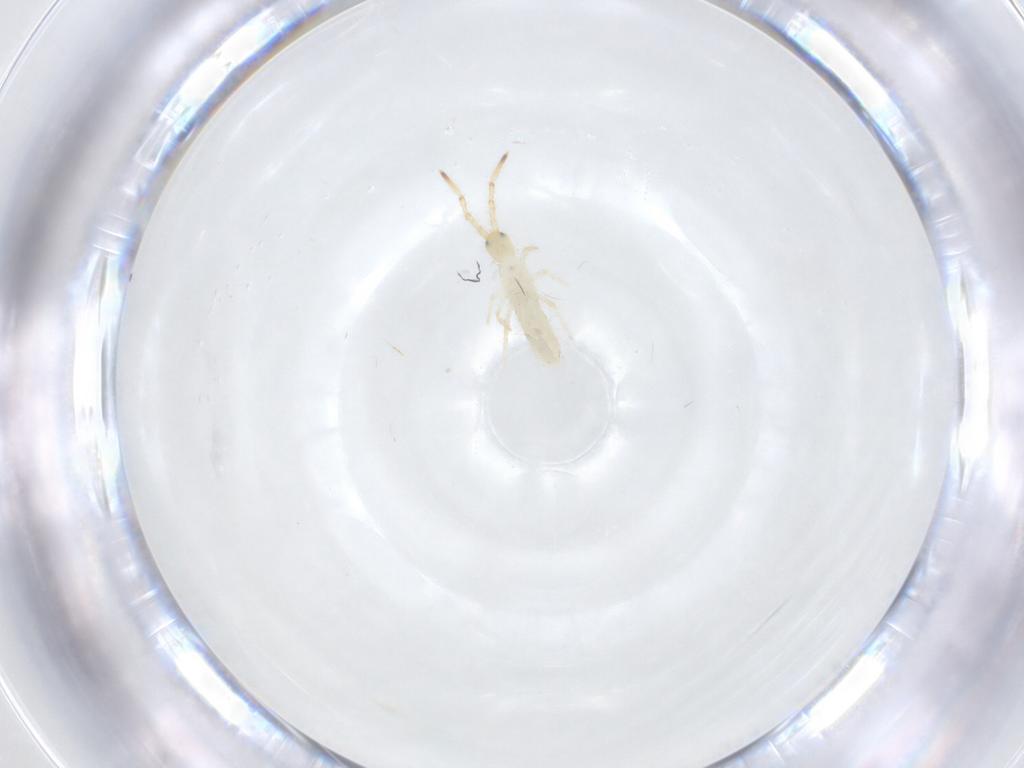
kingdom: Animalia
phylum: Arthropoda
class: Collembola
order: Entomobryomorpha
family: Entomobryidae
